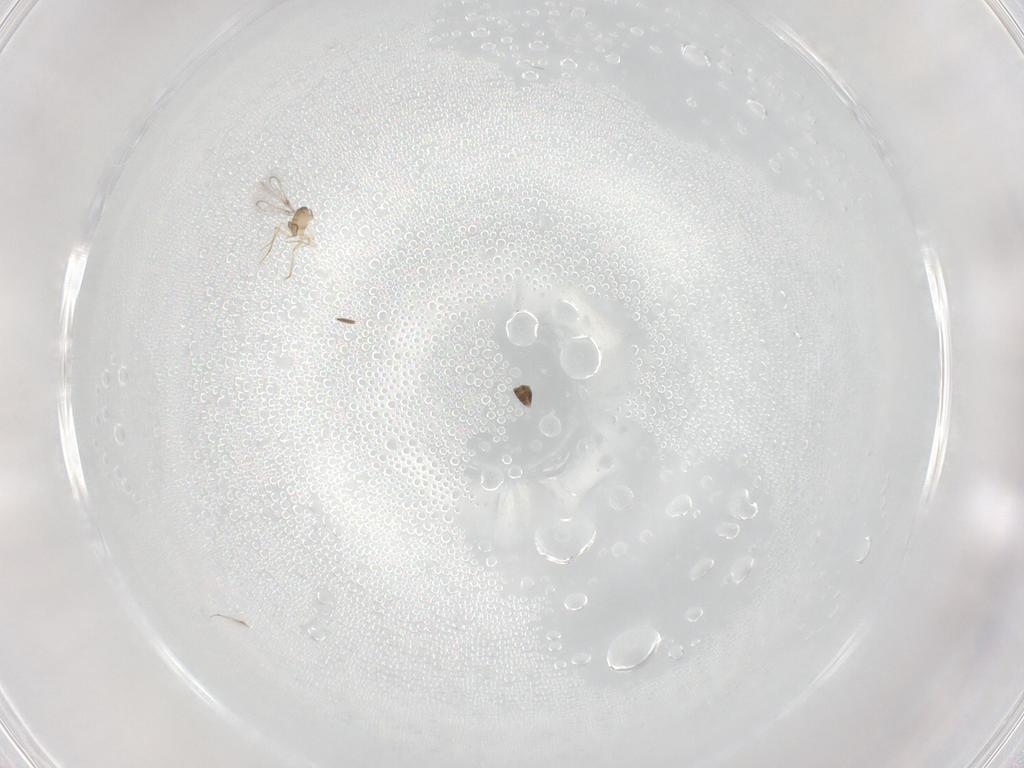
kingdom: Animalia
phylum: Arthropoda
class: Insecta
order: Hymenoptera
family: Mymaridae
